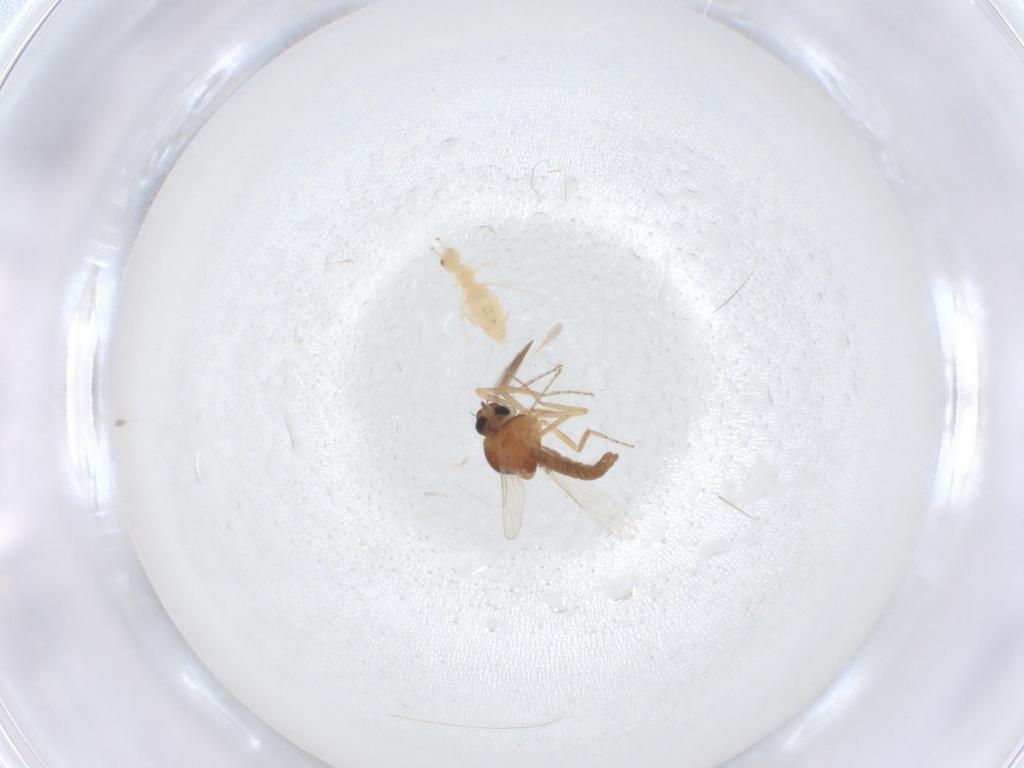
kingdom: Animalia
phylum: Arthropoda
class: Insecta
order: Diptera
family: Ceratopogonidae
